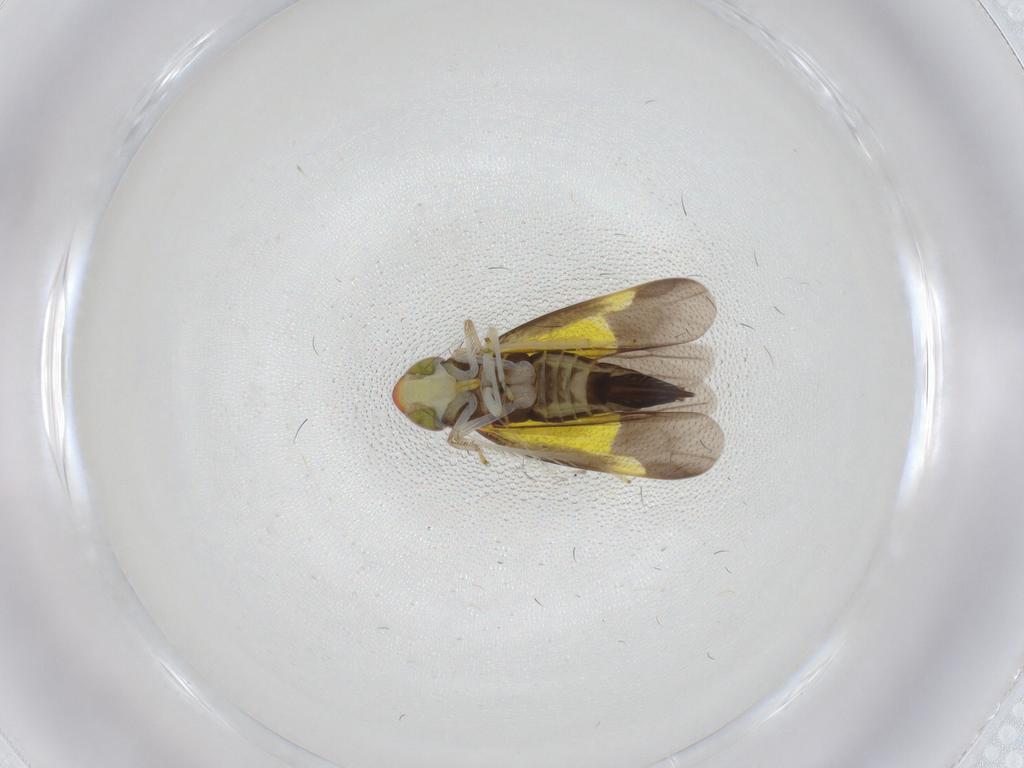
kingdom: Animalia
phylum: Arthropoda
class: Insecta
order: Hemiptera
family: Cicadellidae
